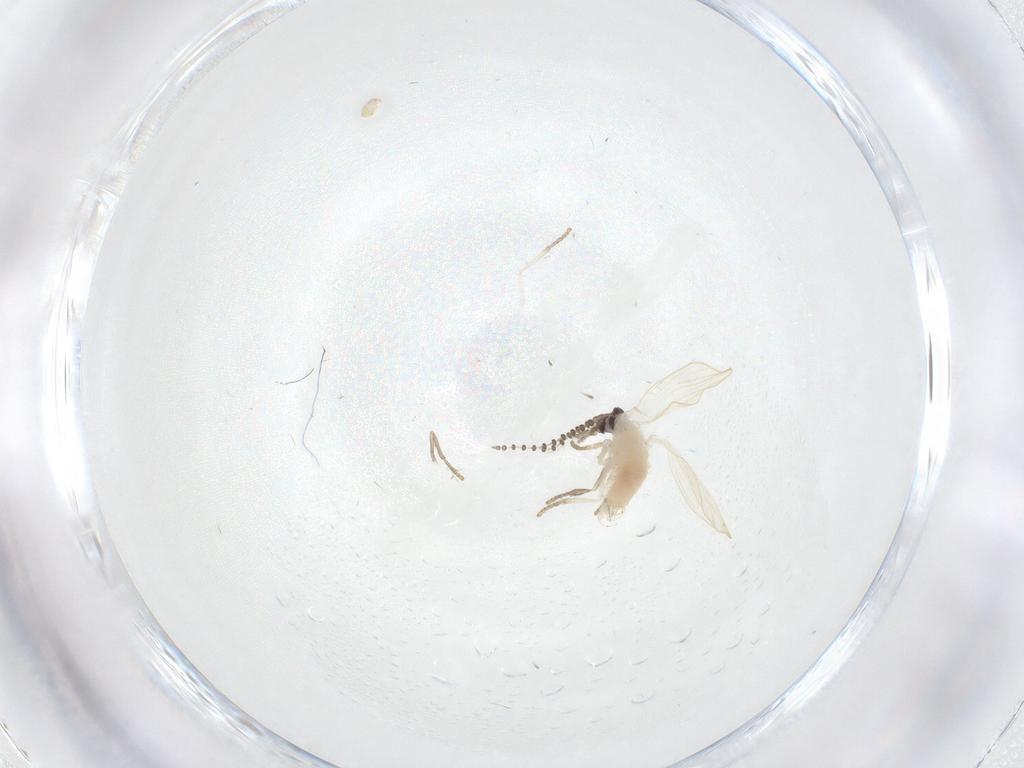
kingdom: Animalia
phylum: Arthropoda
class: Insecta
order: Diptera
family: Psychodidae
